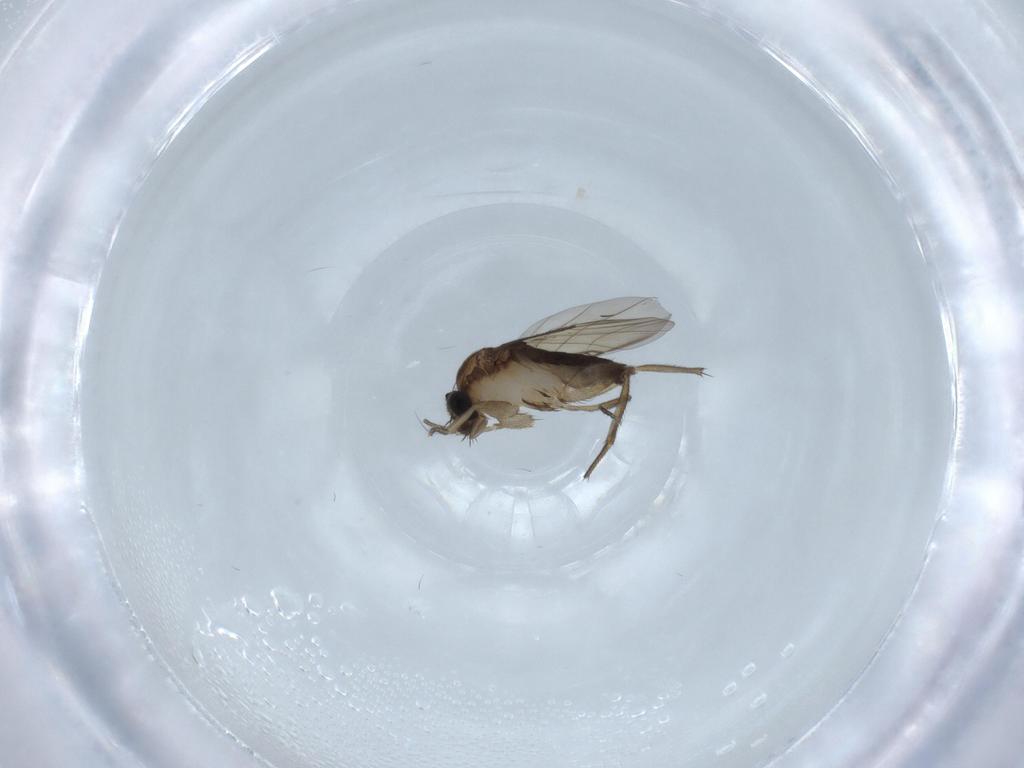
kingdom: Animalia
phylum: Arthropoda
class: Insecta
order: Diptera
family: Phoridae
